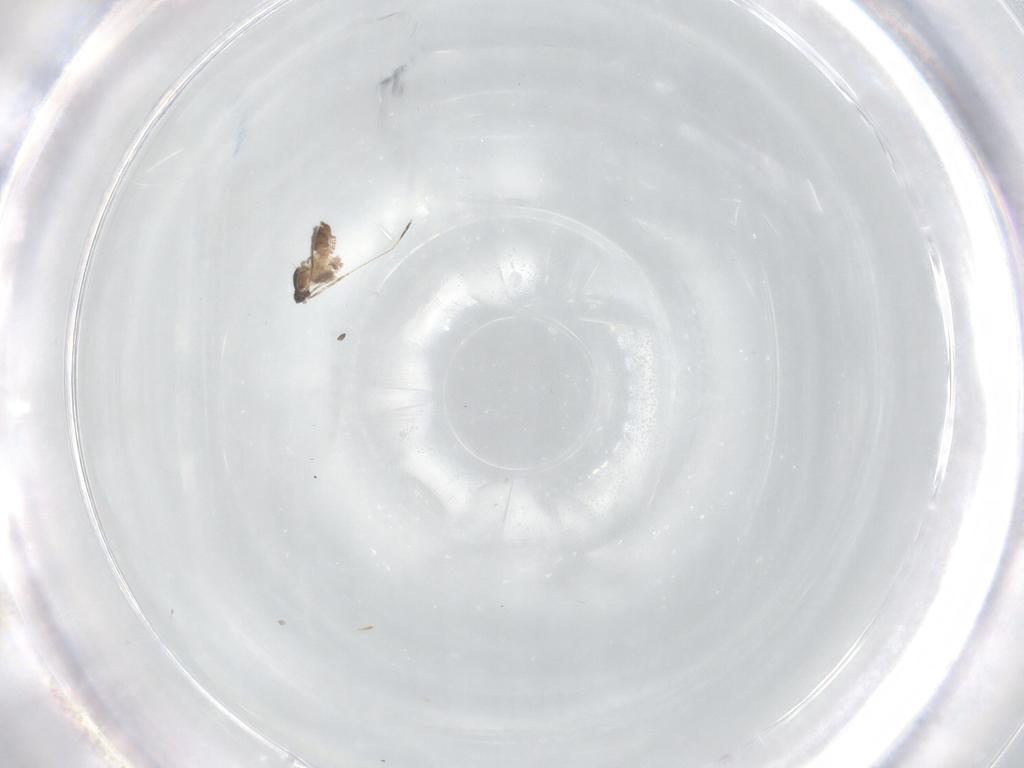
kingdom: Animalia
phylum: Arthropoda
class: Insecta
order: Diptera
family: Cecidomyiidae
